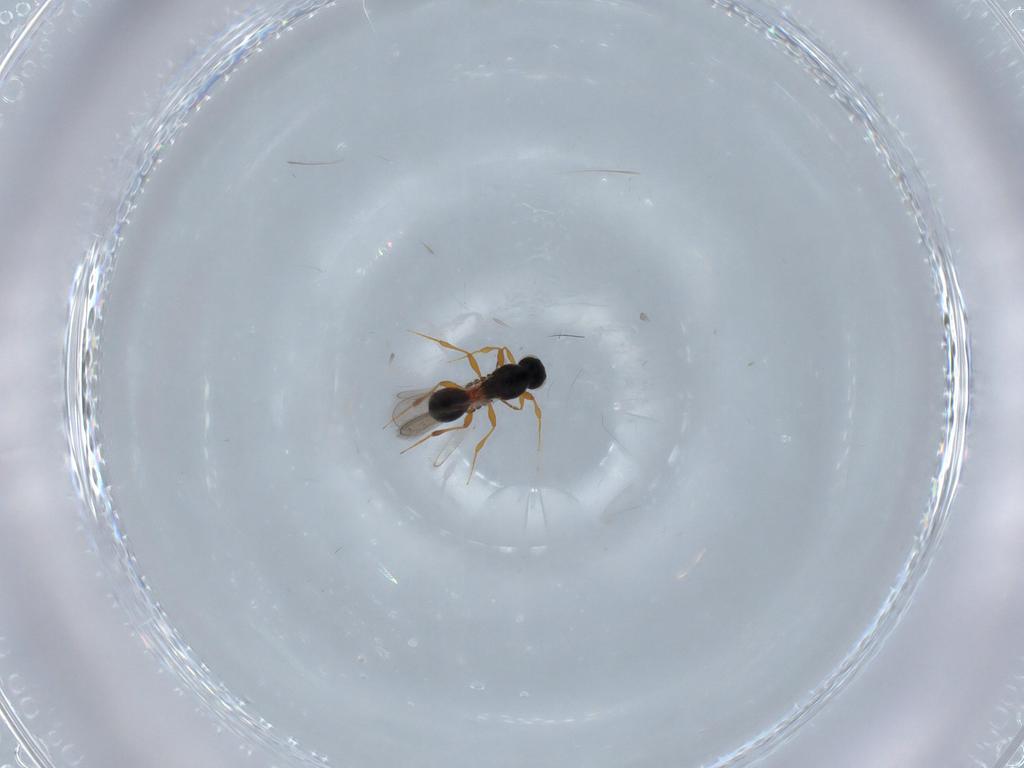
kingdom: Animalia
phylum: Arthropoda
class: Insecta
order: Hymenoptera
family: Platygastridae
